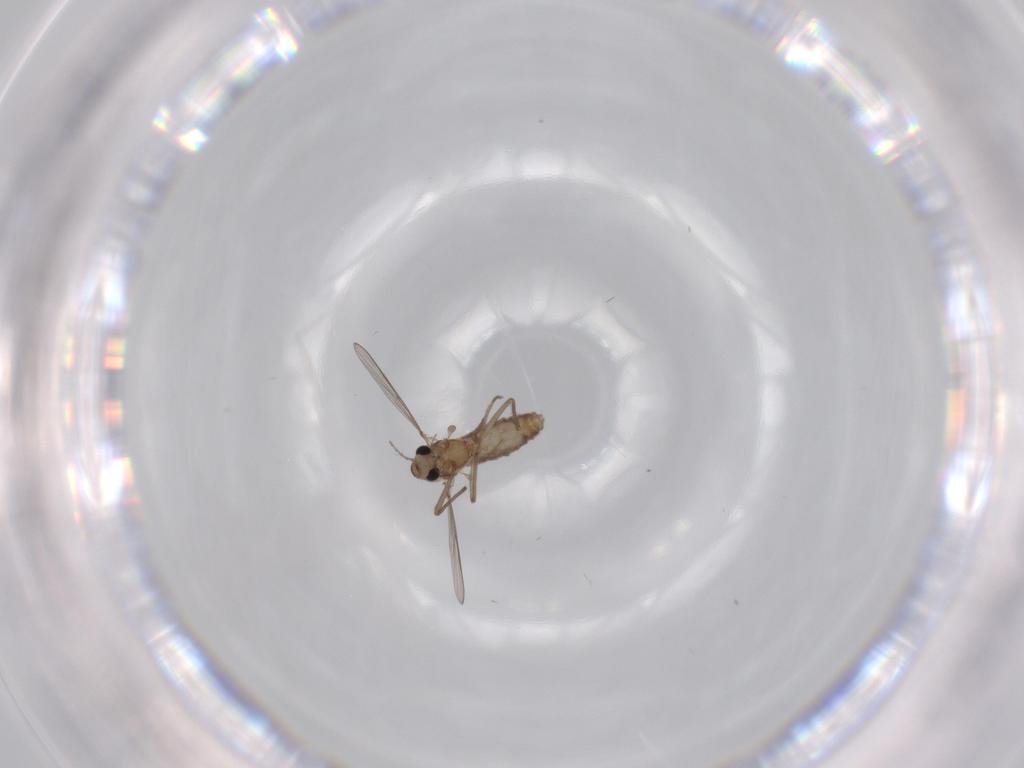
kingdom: Animalia
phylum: Arthropoda
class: Insecta
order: Diptera
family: Chironomidae
